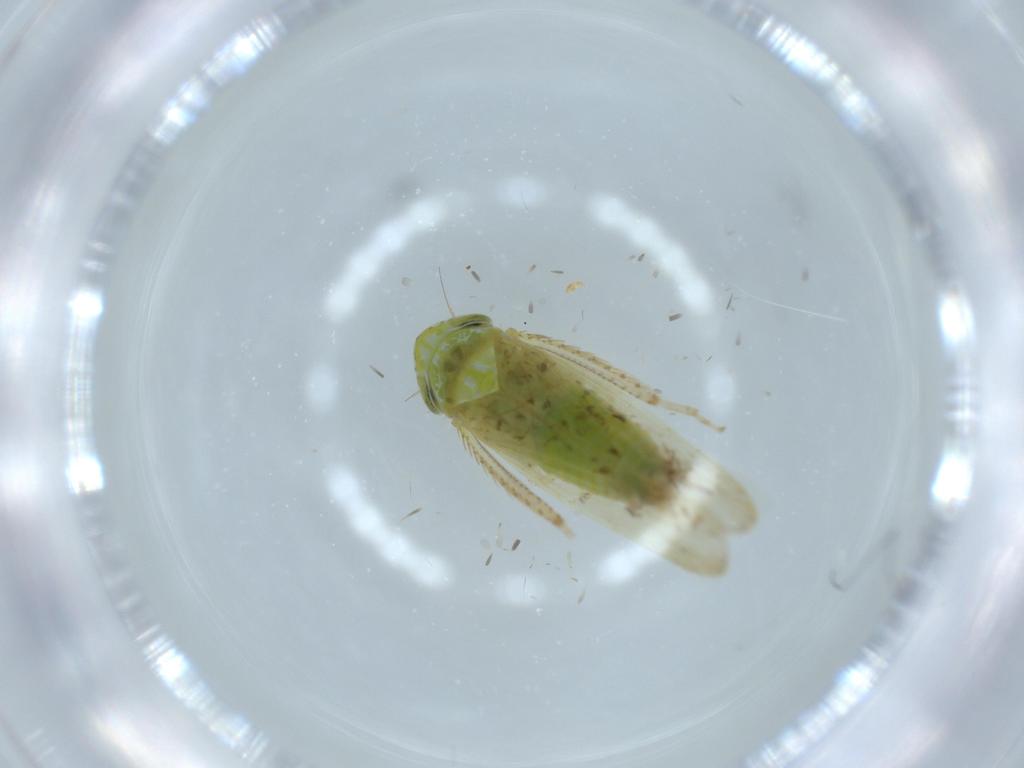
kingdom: Animalia
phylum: Arthropoda
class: Insecta
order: Hemiptera
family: Cicadellidae
